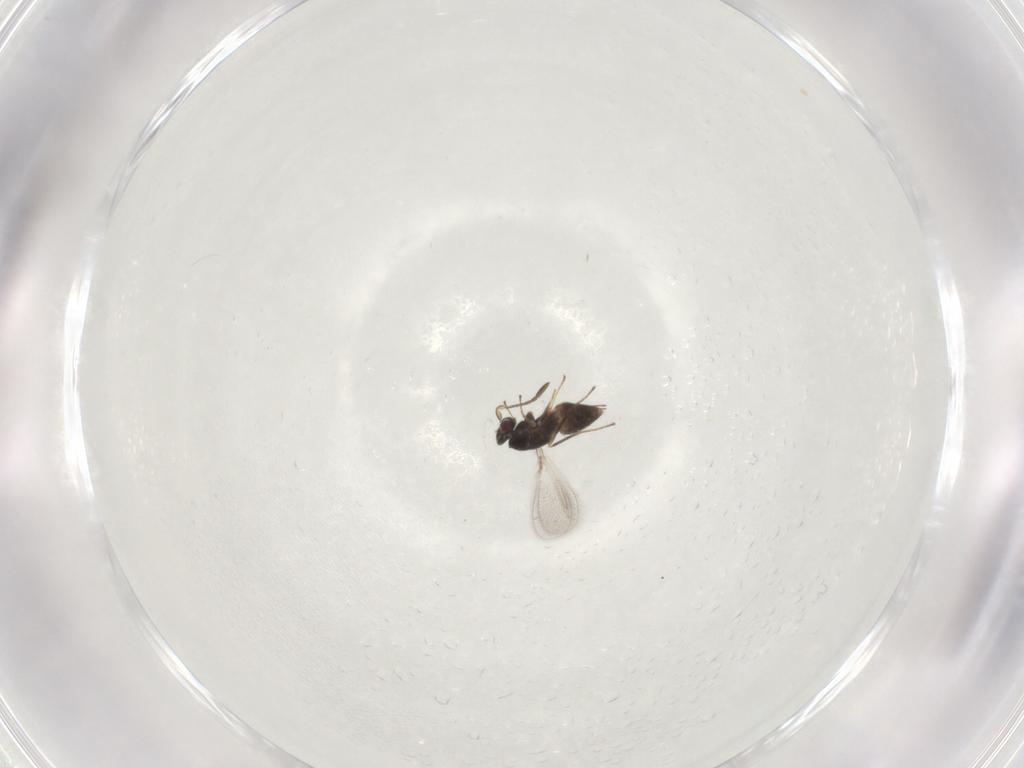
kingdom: Animalia
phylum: Arthropoda
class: Insecta
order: Hymenoptera
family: Mymaridae
